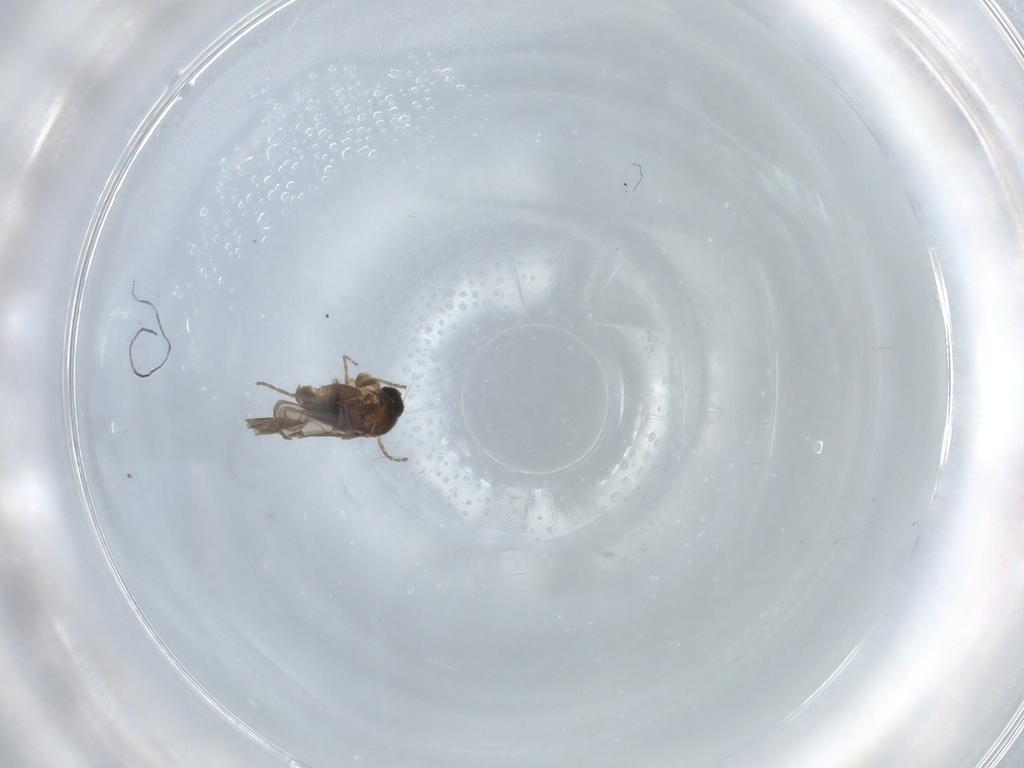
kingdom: Animalia
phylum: Arthropoda
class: Insecta
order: Diptera
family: Phoridae
